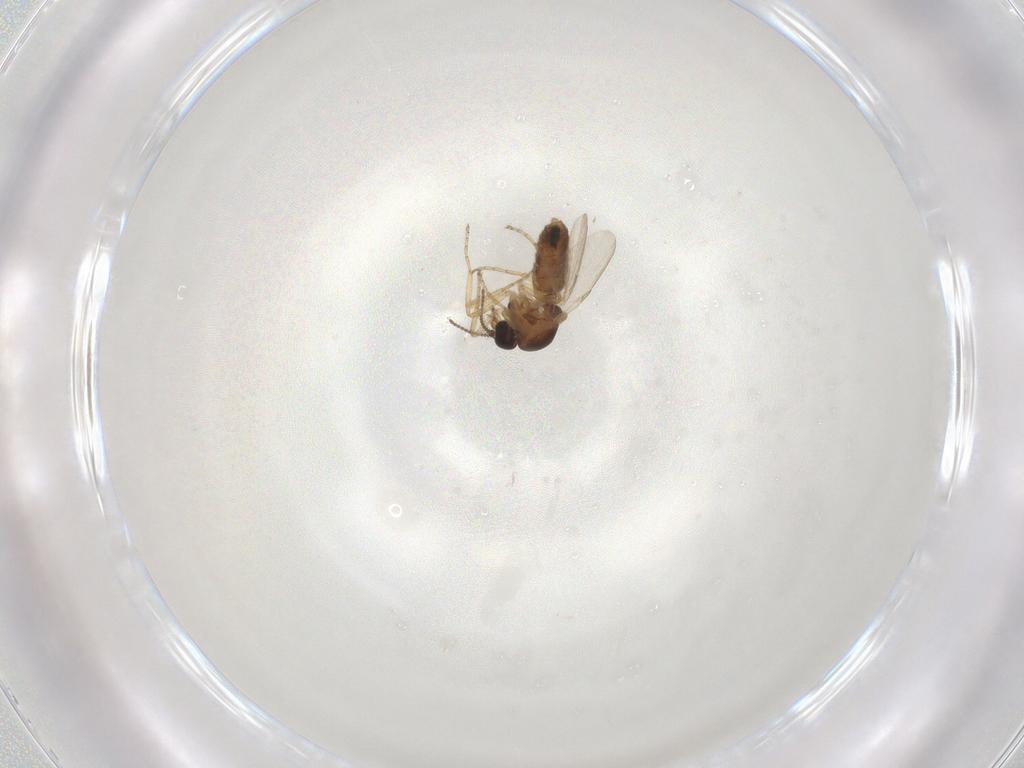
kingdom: Animalia
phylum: Arthropoda
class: Insecta
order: Diptera
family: Ceratopogonidae
